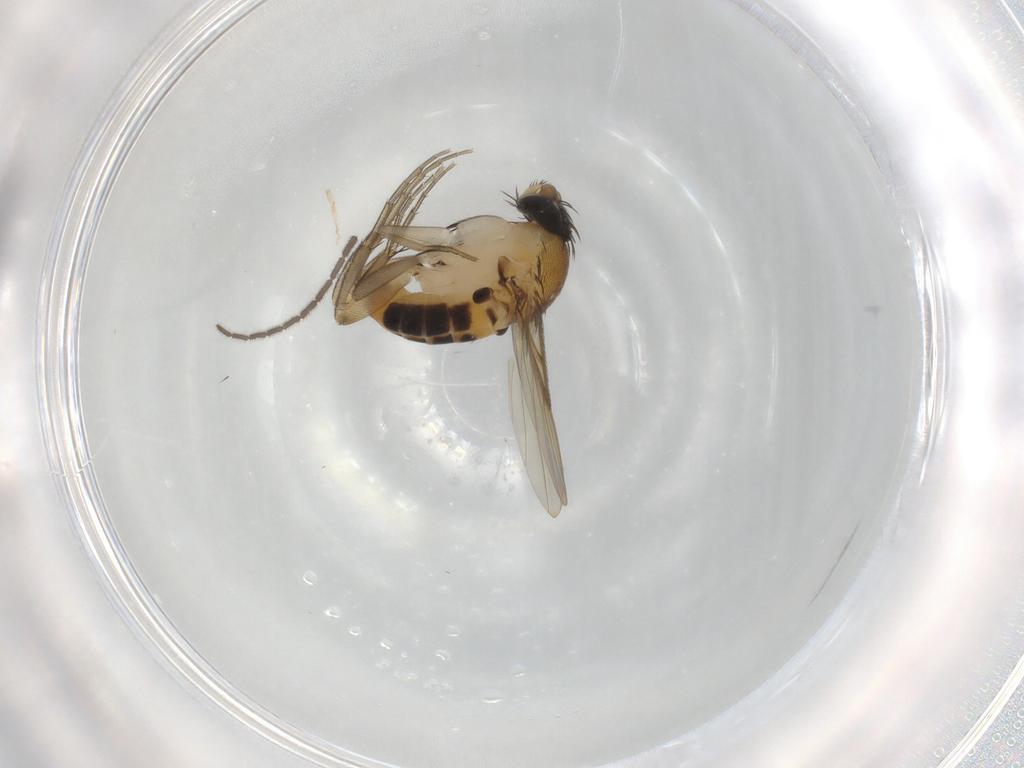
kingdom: Animalia
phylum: Arthropoda
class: Insecta
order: Diptera
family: Phoridae
